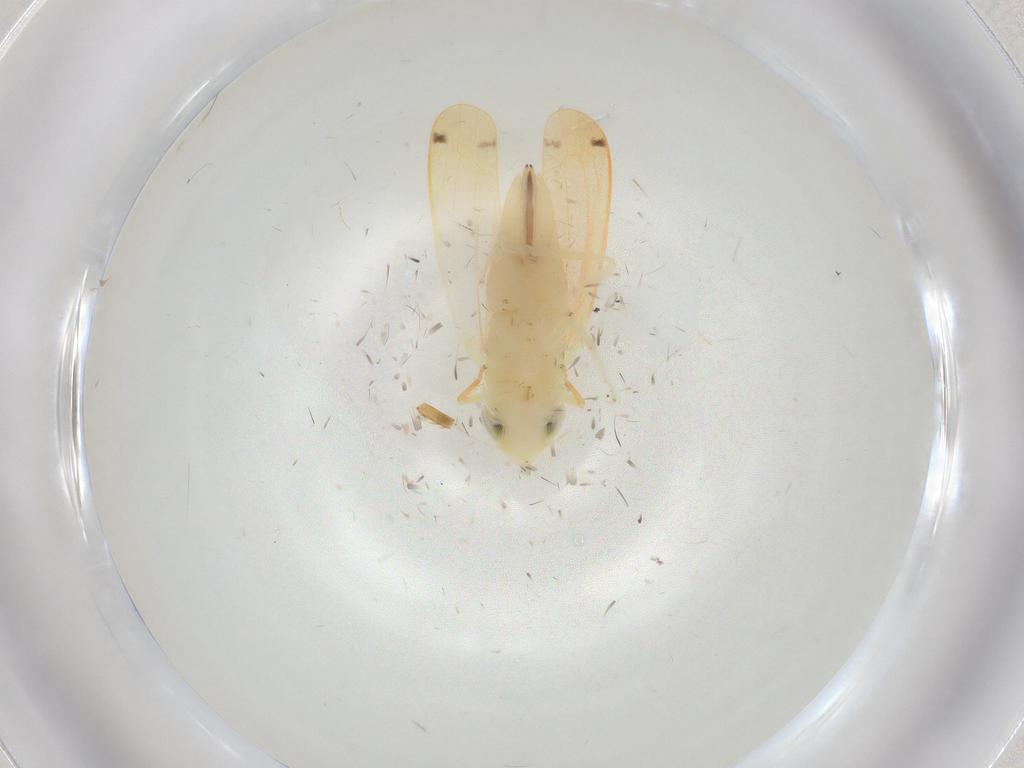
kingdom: Animalia
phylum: Arthropoda
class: Insecta
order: Hemiptera
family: Cicadellidae
